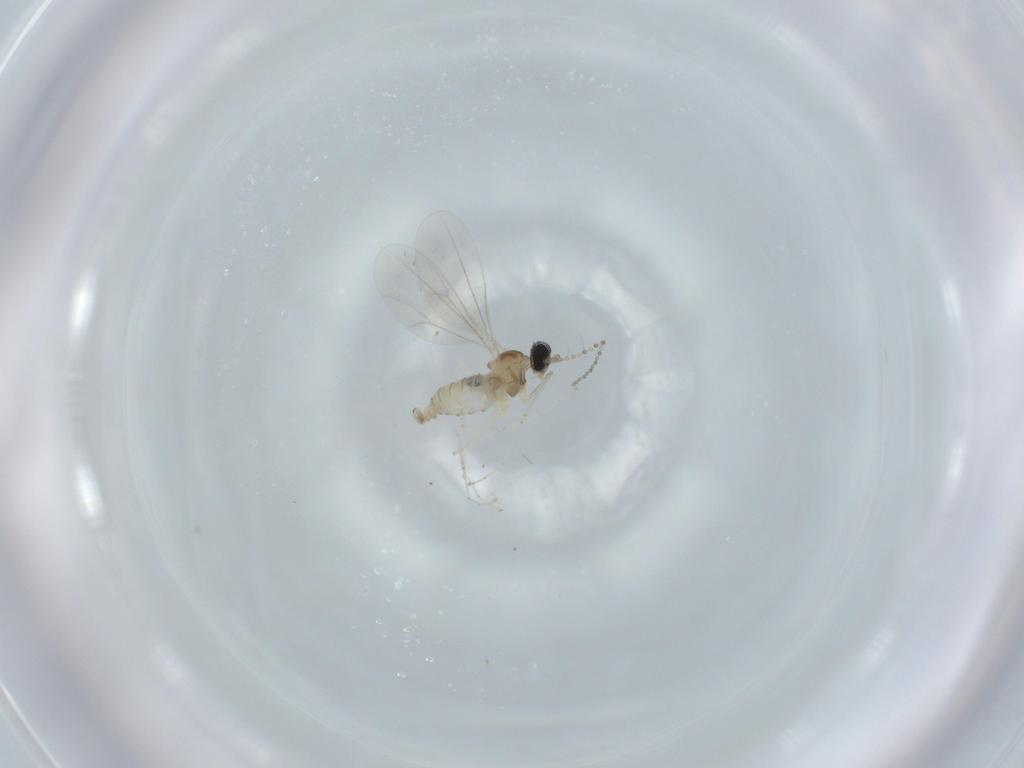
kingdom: Animalia
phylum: Arthropoda
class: Insecta
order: Diptera
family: Cecidomyiidae
